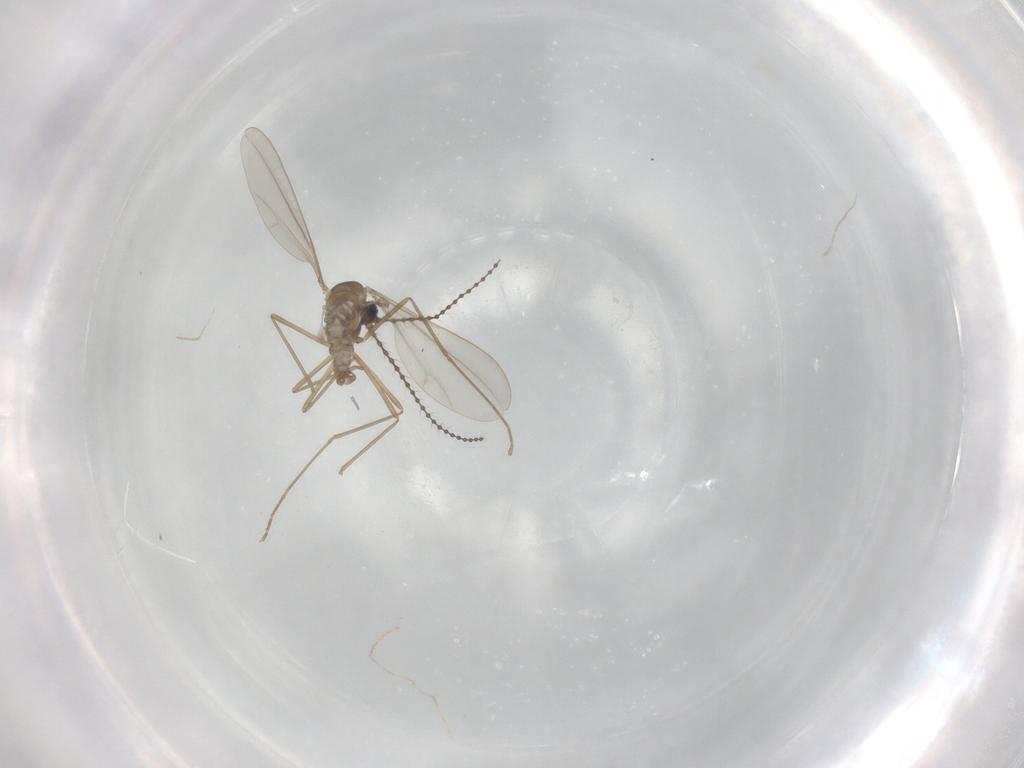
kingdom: Animalia
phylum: Arthropoda
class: Insecta
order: Diptera
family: Cecidomyiidae
